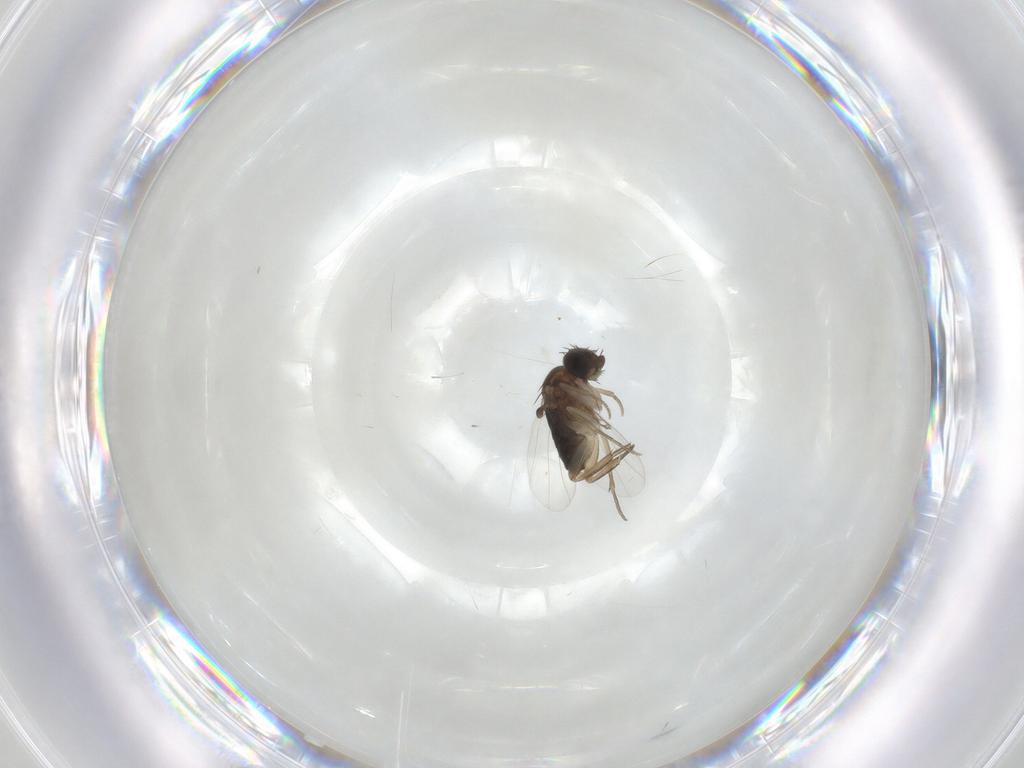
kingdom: Animalia
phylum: Arthropoda
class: Insecta
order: Diptera
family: Phoridae
